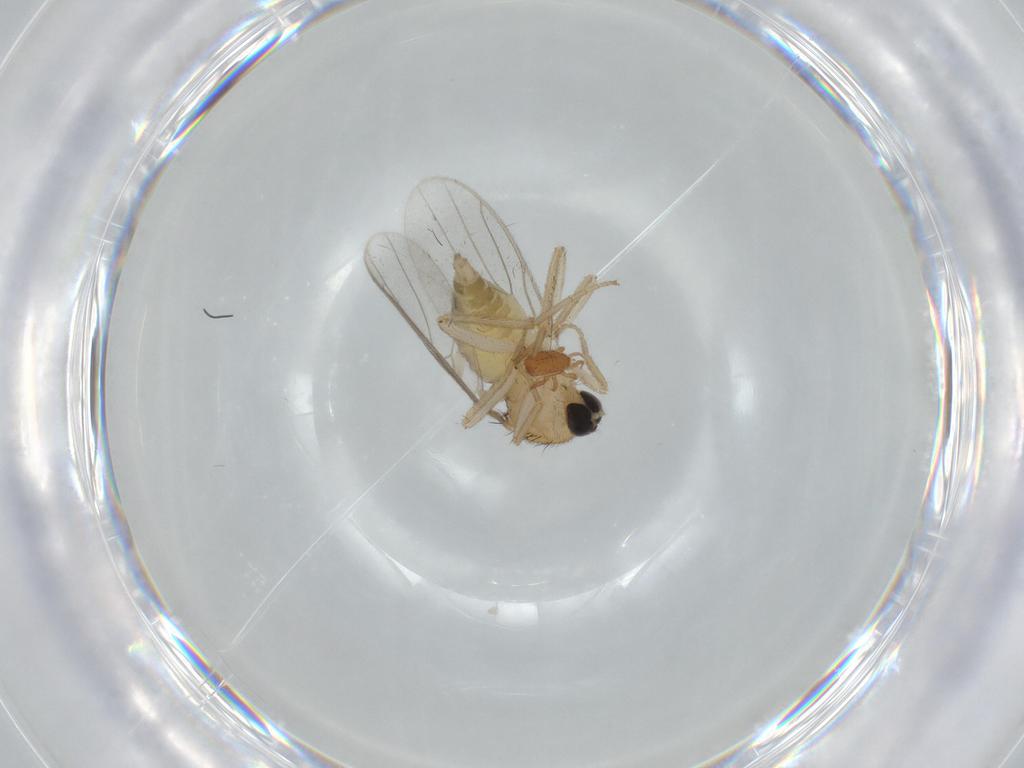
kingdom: Animalia
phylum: Arthropoda
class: Insecta
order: Diptera
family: Hybotidae
